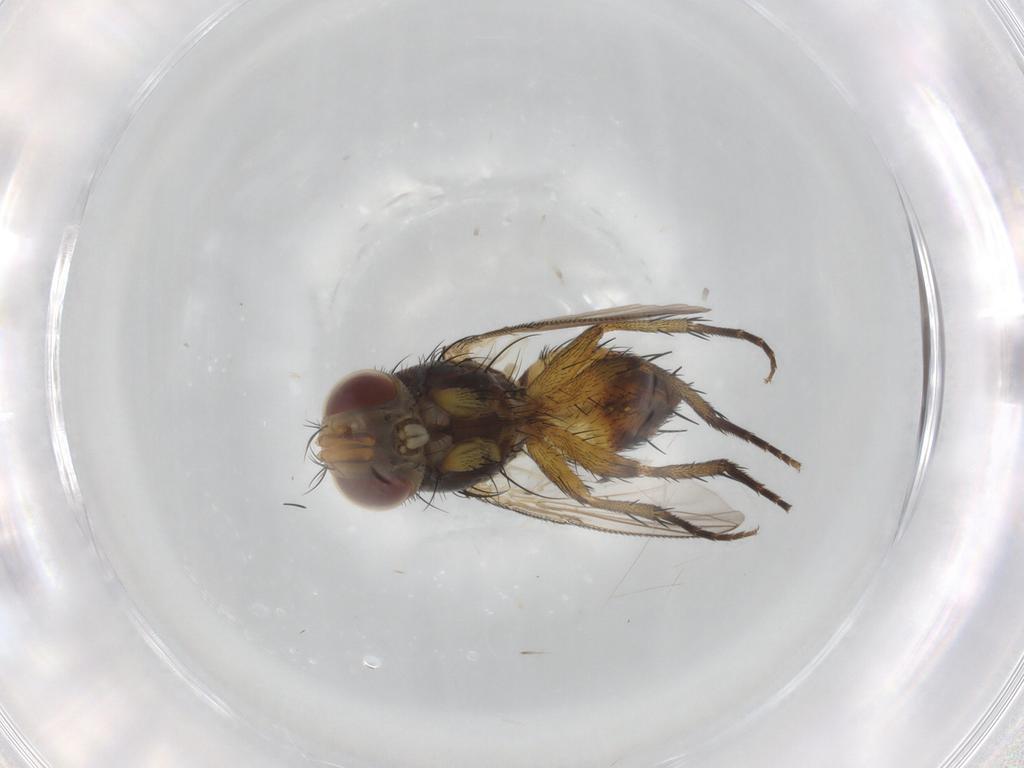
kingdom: Animalia
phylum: Arthropoda
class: Insecta
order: Diptera
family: Tachinidae
